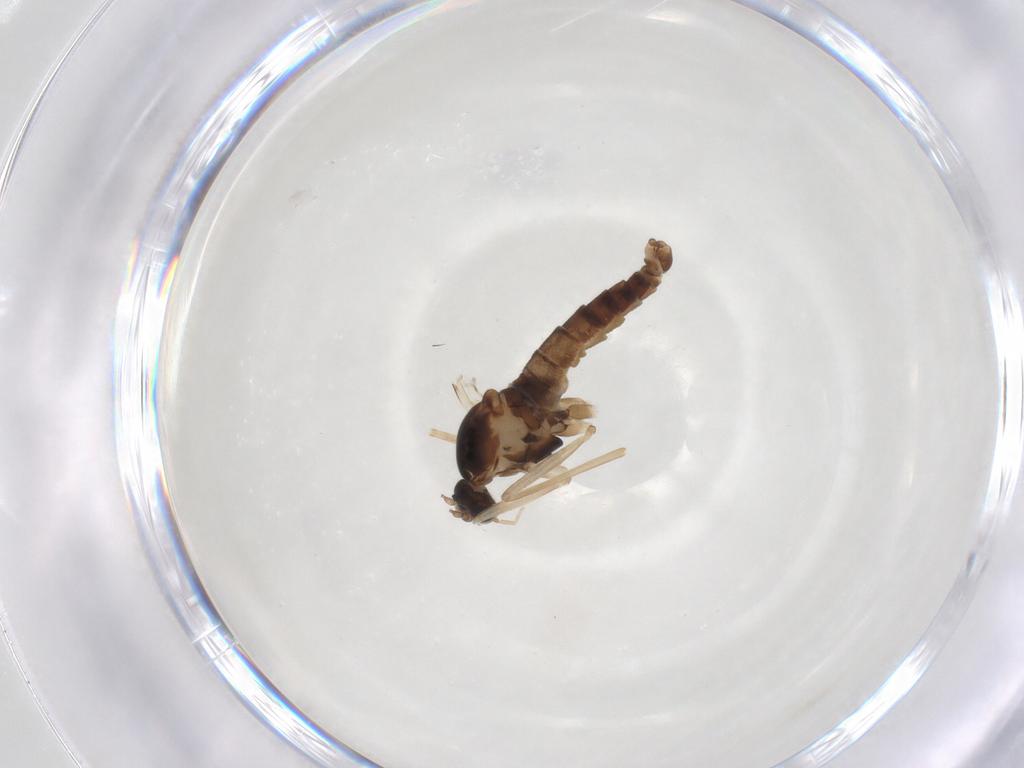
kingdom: Animalia
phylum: Arthropoda
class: Insecta
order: Diptera
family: Cecidomyiidae
